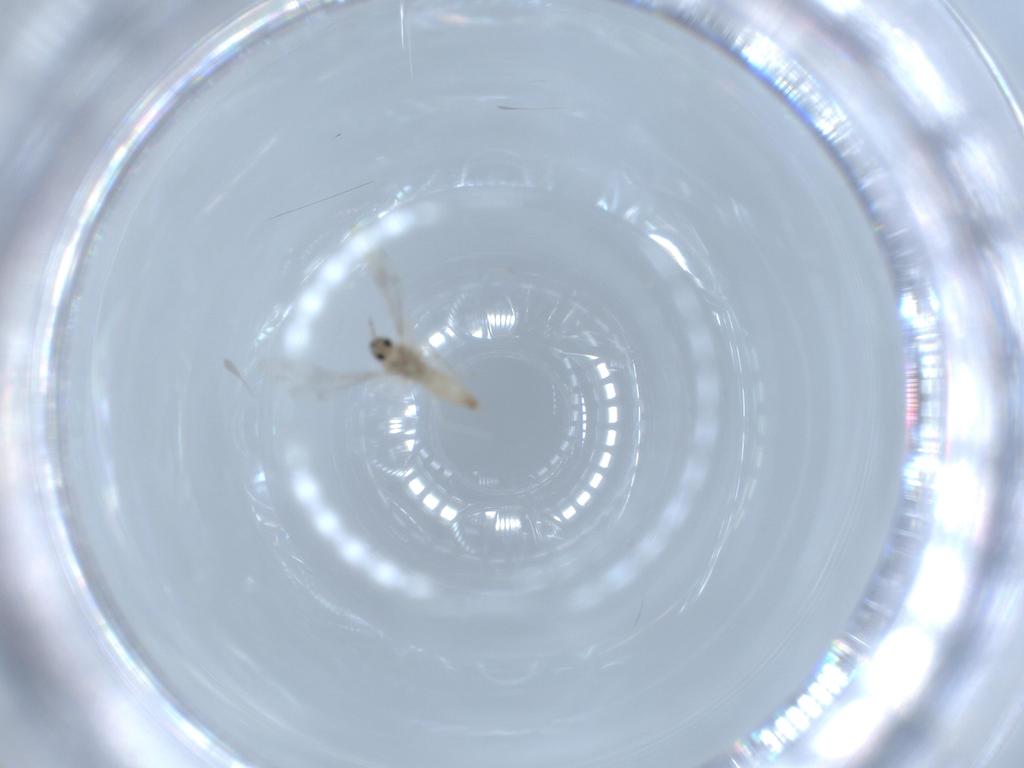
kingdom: Animalia
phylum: Arthropoda
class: Insecta
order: Diptera
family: Cecidomyiidae
